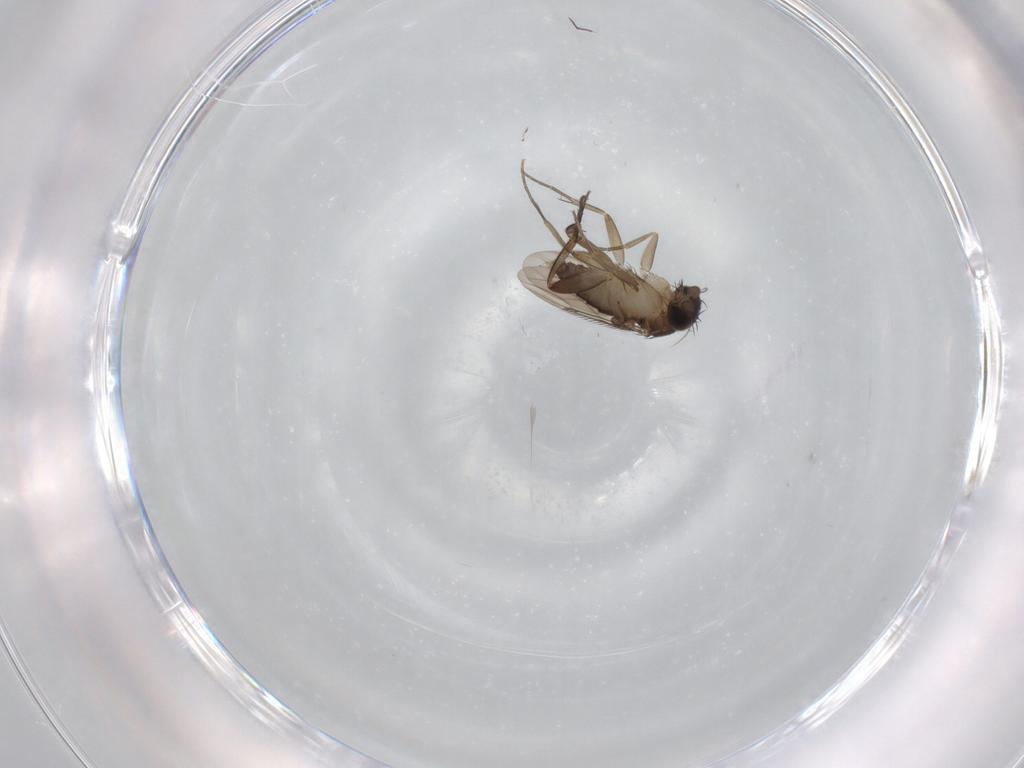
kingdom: Animalia
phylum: Arthropoda
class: Insecta
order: Diptera
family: Phoridae
